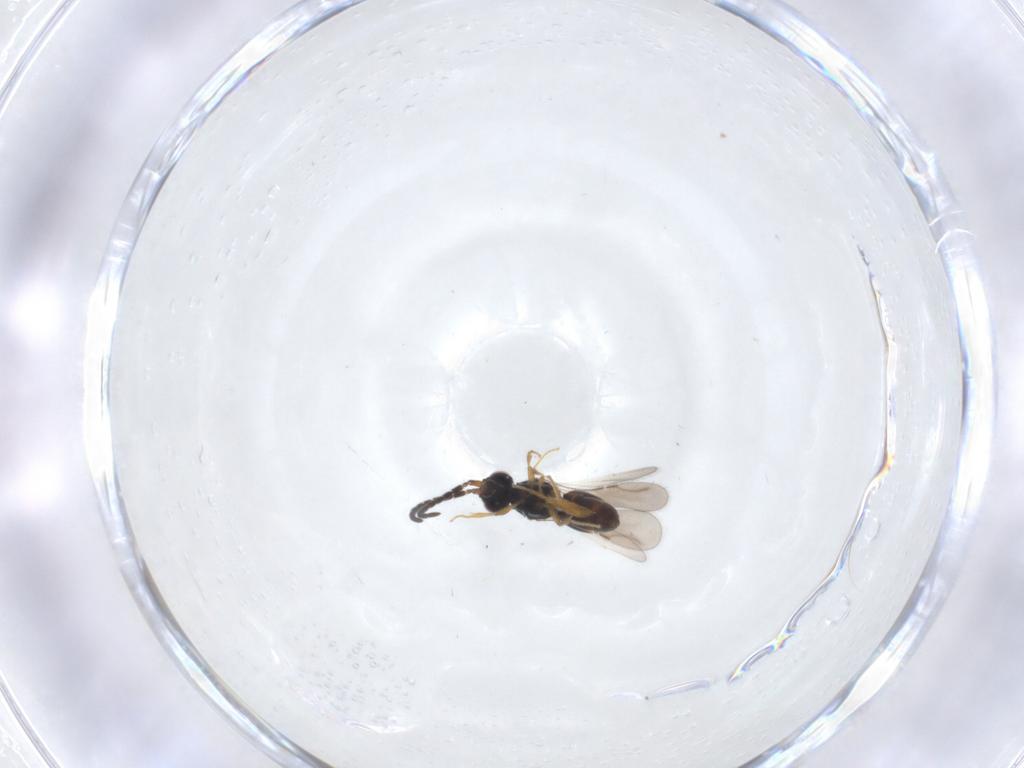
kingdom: Animalia
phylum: Arthropoda
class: Insecta
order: Hymenoptera
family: Ceraphronidae
